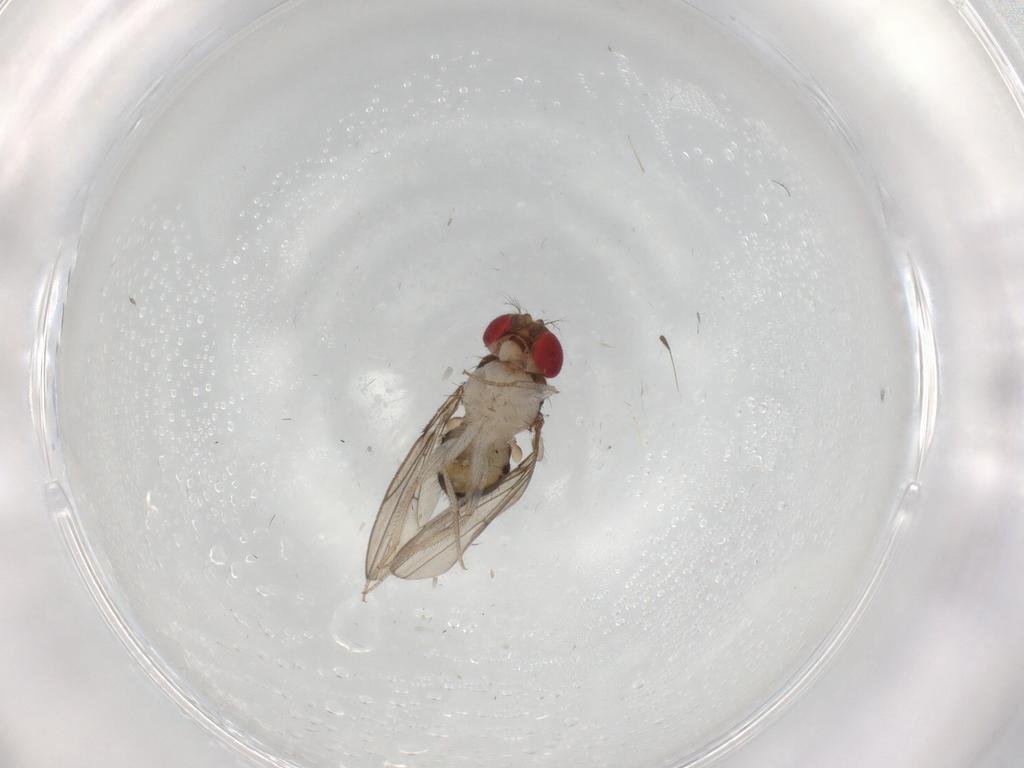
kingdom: Animalia
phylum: Arthropoda
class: Insecta
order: Diptera
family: Drosophilidae
